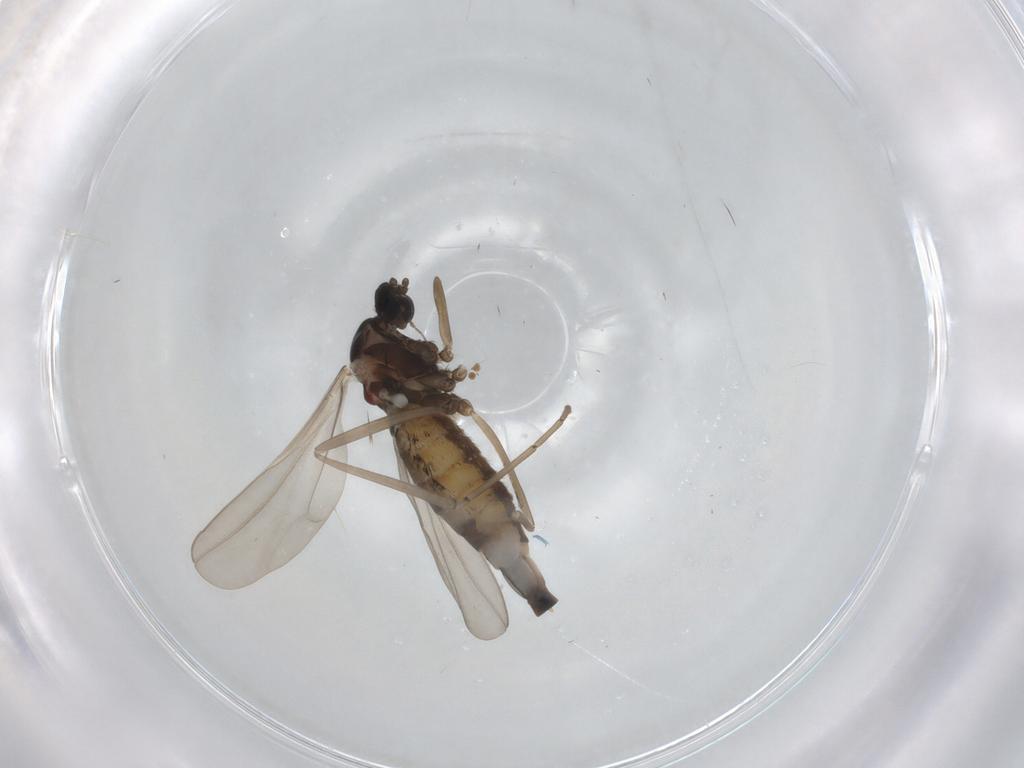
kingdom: Animalia
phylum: Arthropoda
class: Insecta
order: Diptera
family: Cecidomyiidae
